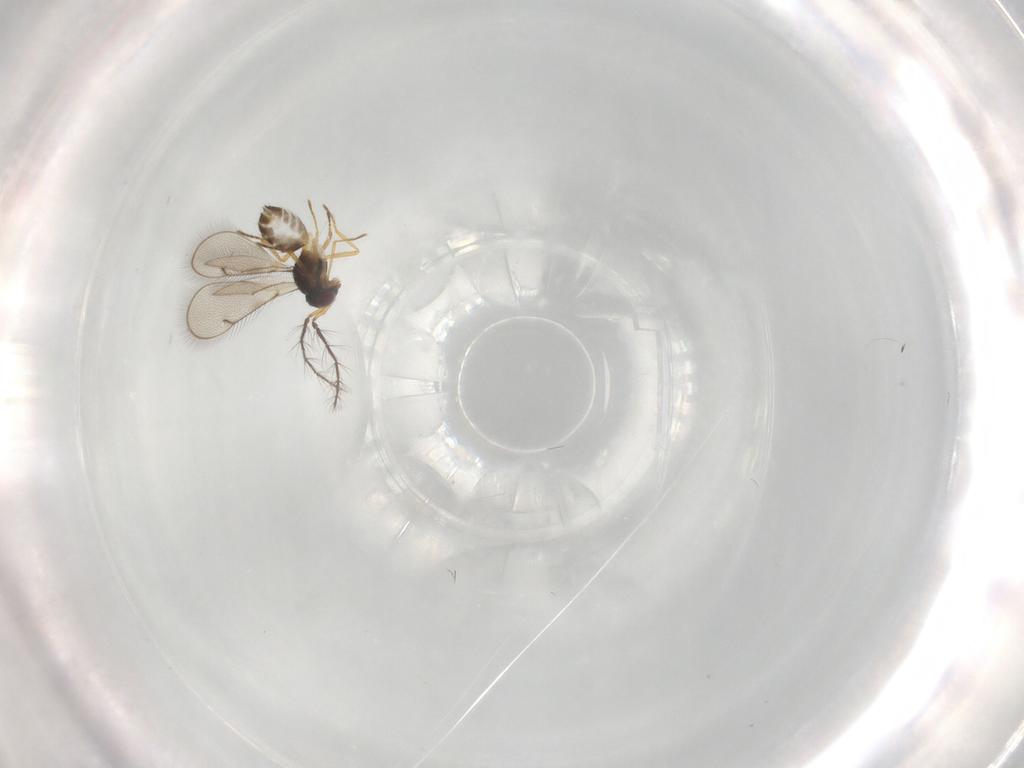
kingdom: Animalia
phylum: Arthropoda
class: Insecta
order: Hymenoptera
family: Eulophidae
